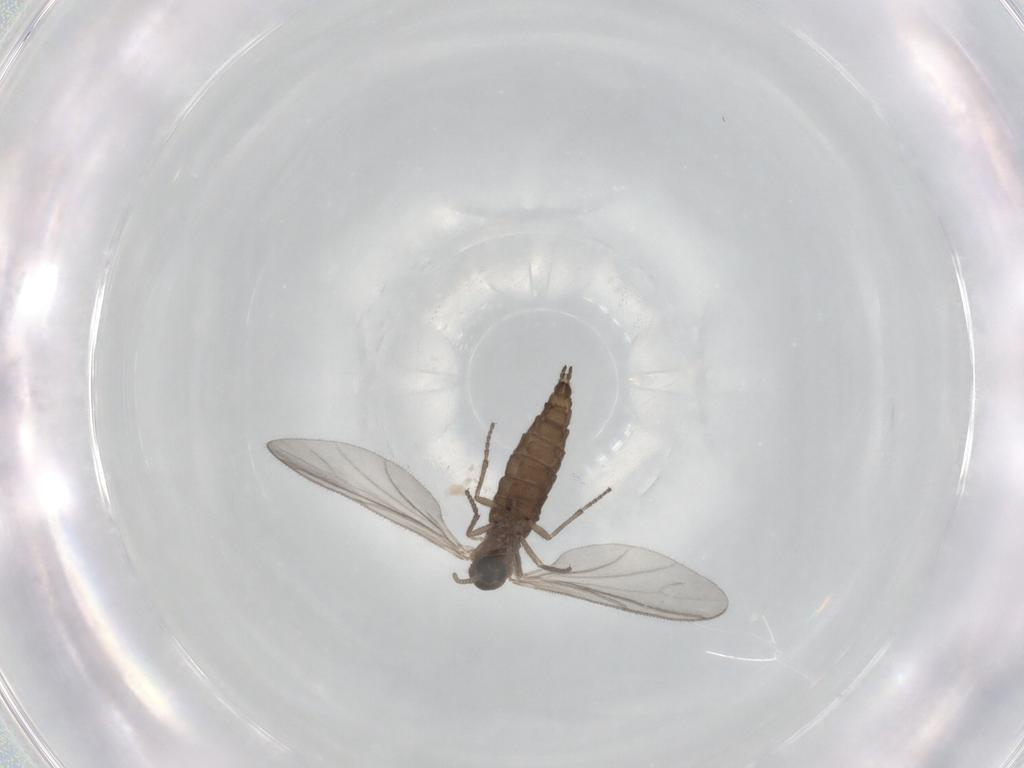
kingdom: Animalia
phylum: Arthropoda
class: Insecta
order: Diptera
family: Sciaridae
